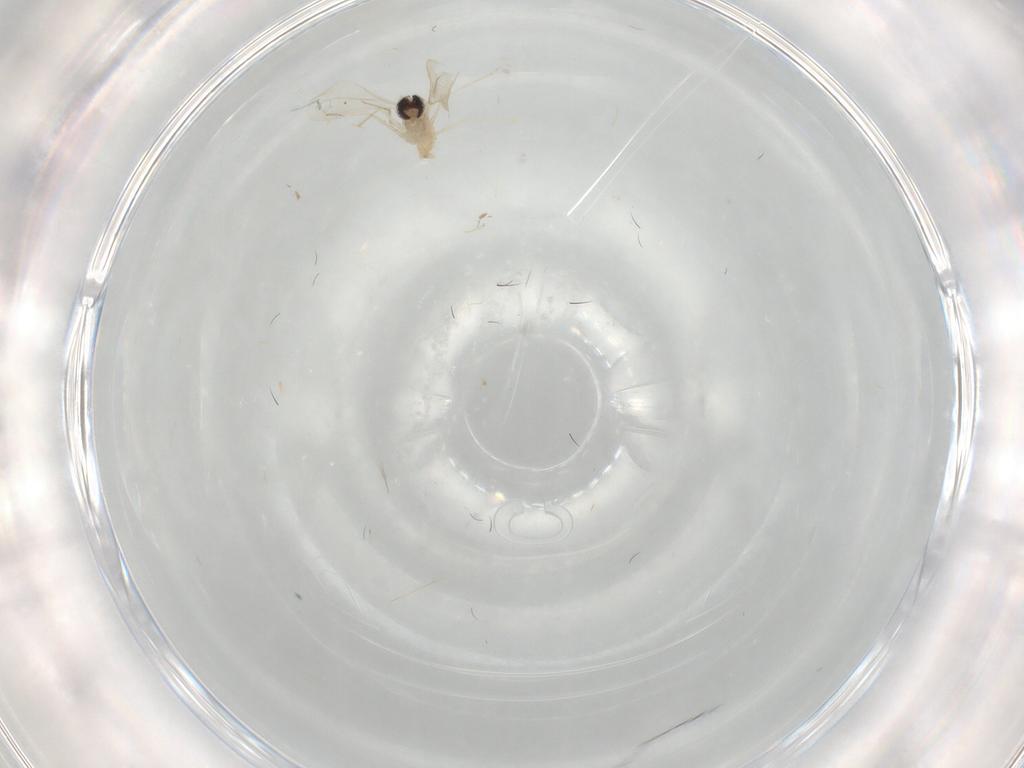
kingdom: Animalia
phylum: Arthropoda
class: Insecta
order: Diptera
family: Cecidomyiidae
